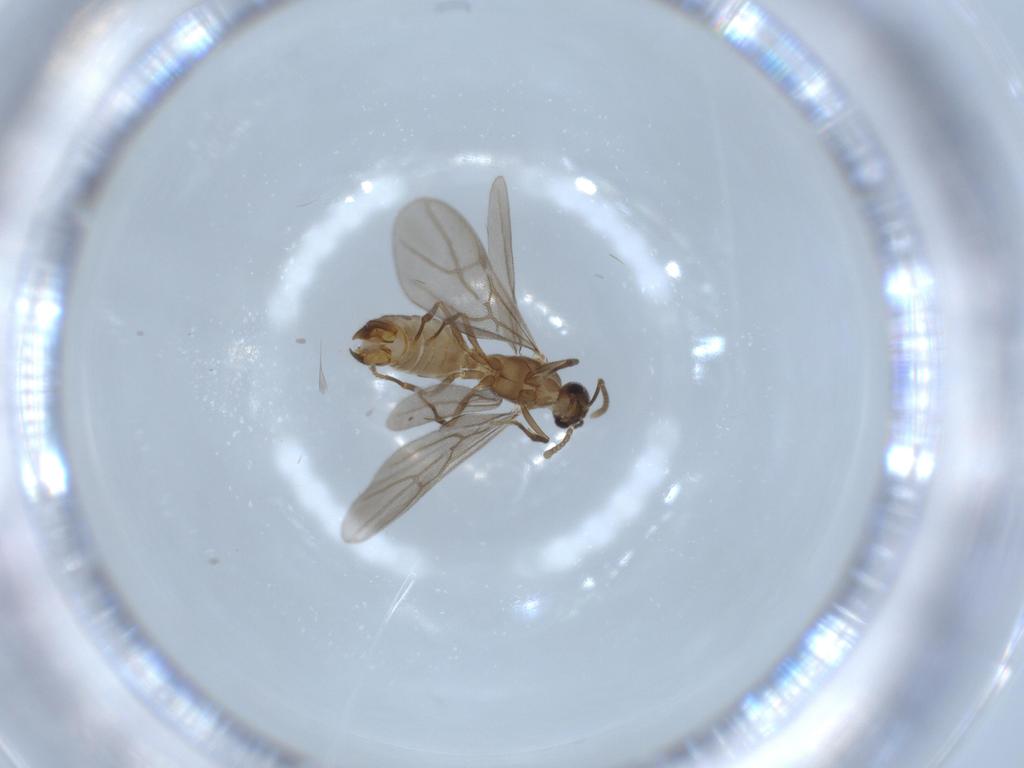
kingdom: Animalia
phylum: Arthropoda
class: Insecta
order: Hymenoptera
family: Formicidae
